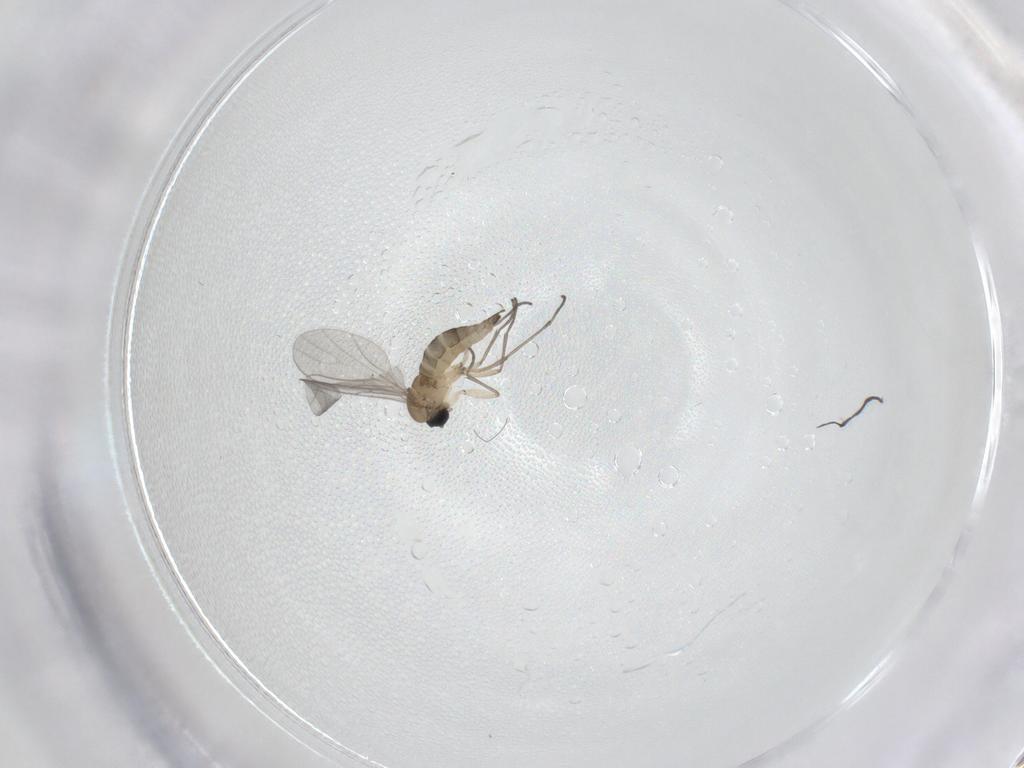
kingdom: Animalia
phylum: Arthropoda
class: Insecta
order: Diptera
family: Sciaridae
